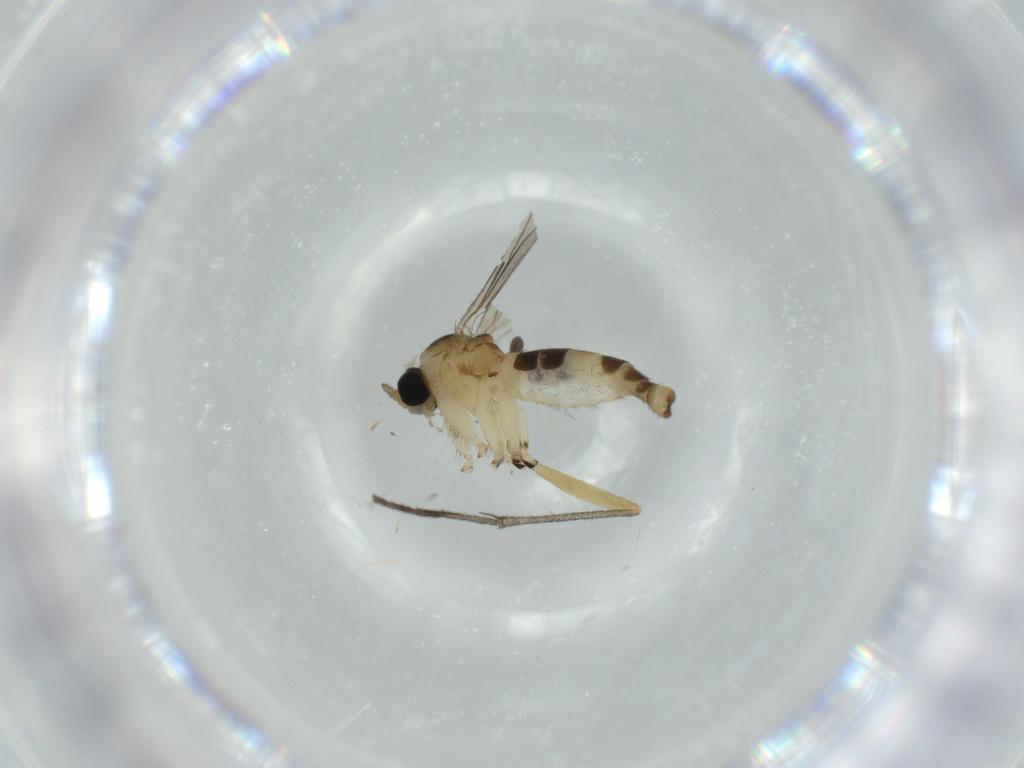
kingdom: Animalia
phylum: Arthropoda
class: Insecta
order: Diptera
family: Sciaridae
